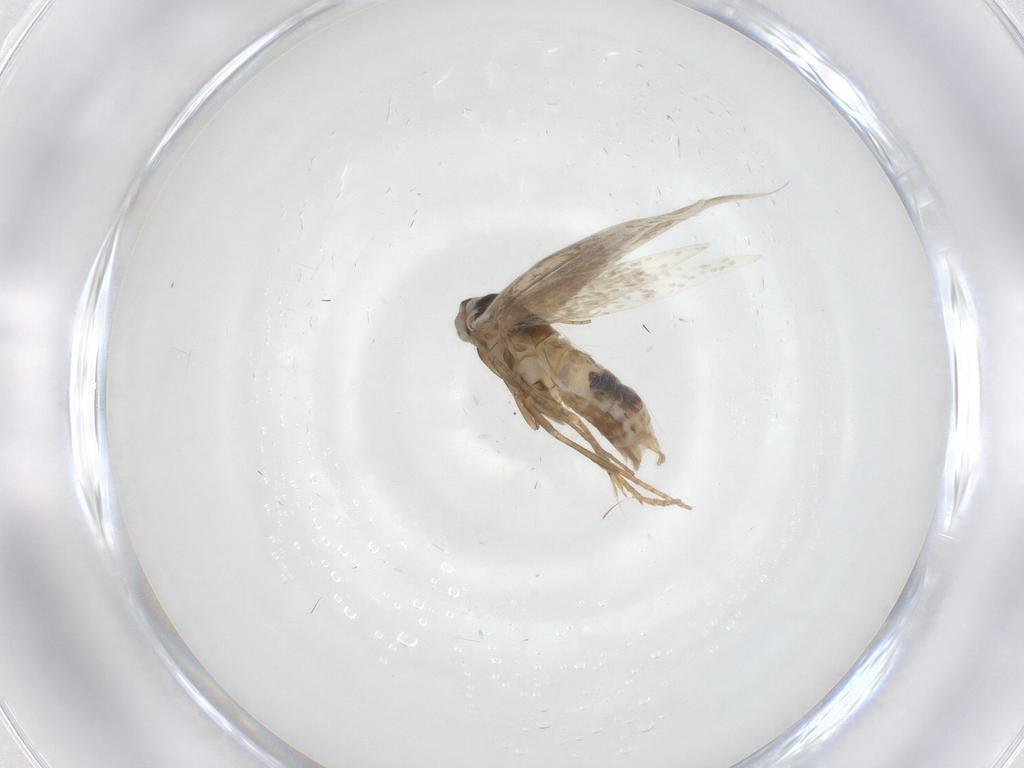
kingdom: Animalia
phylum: Arthropoda
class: Insecta
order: Lepidoptera
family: Bucculatricidae
